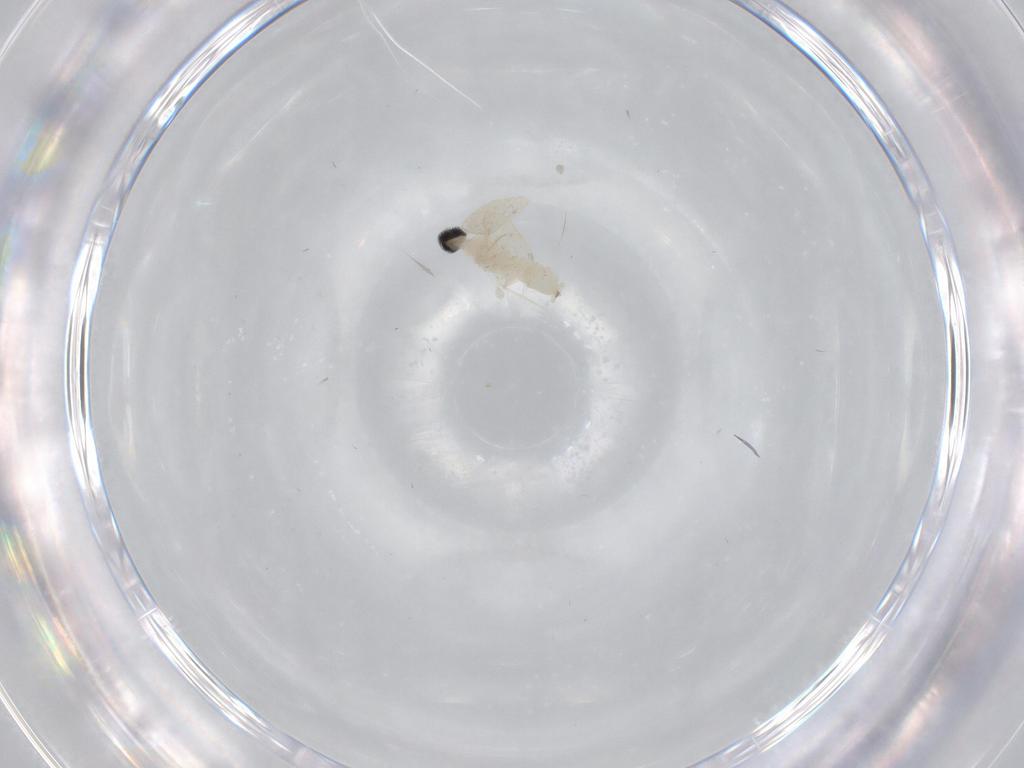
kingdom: Animalia
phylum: Arthropoda
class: Insecta
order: Diptera
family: Cecidomyiidae
